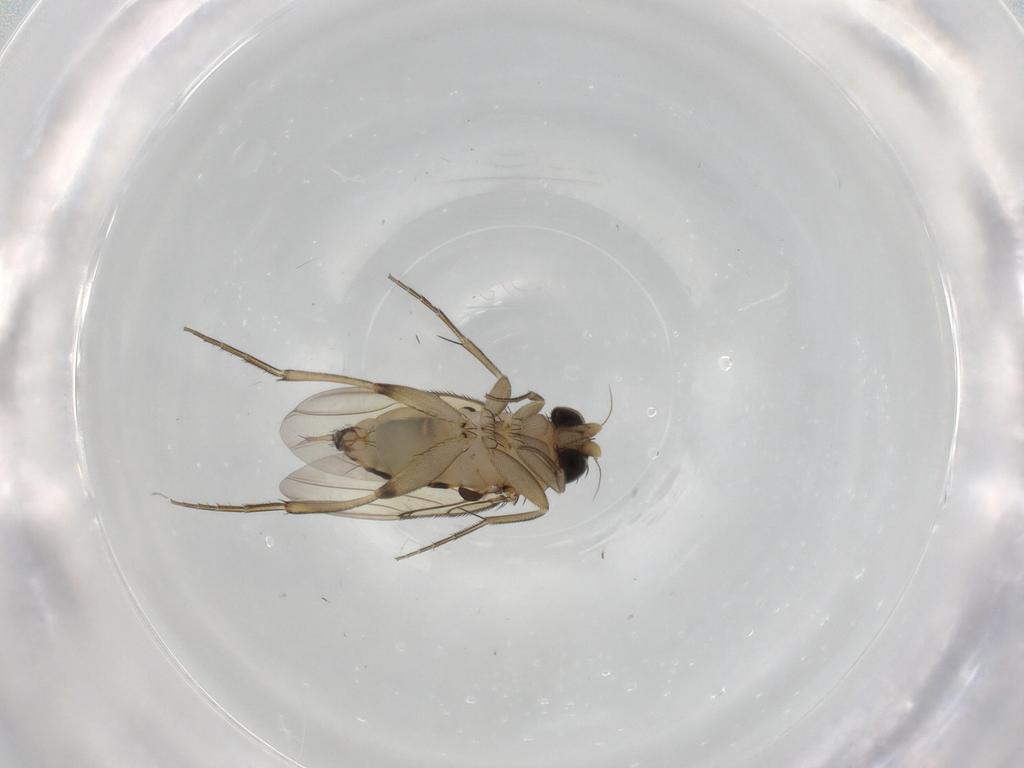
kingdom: Animalia
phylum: Arthropoda
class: Insecta
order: Diptera
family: Phoridae
